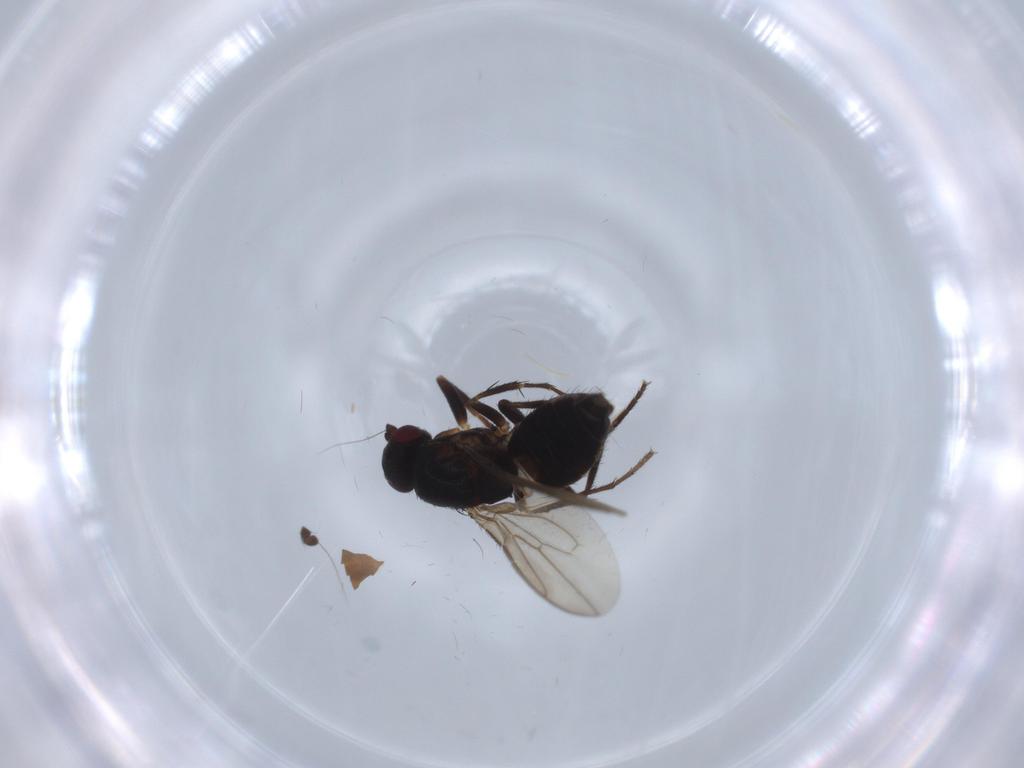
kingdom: Animalia
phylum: Arthropoda
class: Insecta
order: Diptera
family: Sphaeroceridae
